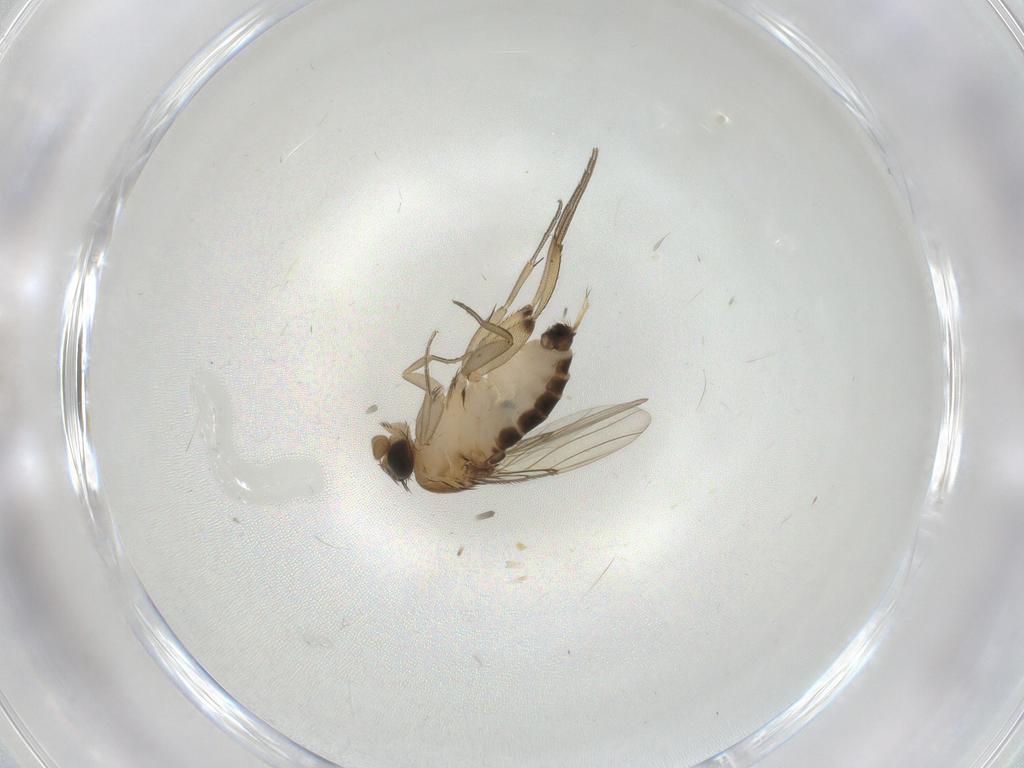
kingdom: Animalia
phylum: Arthropoda
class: Insecta
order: Diptera
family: Phoridae
